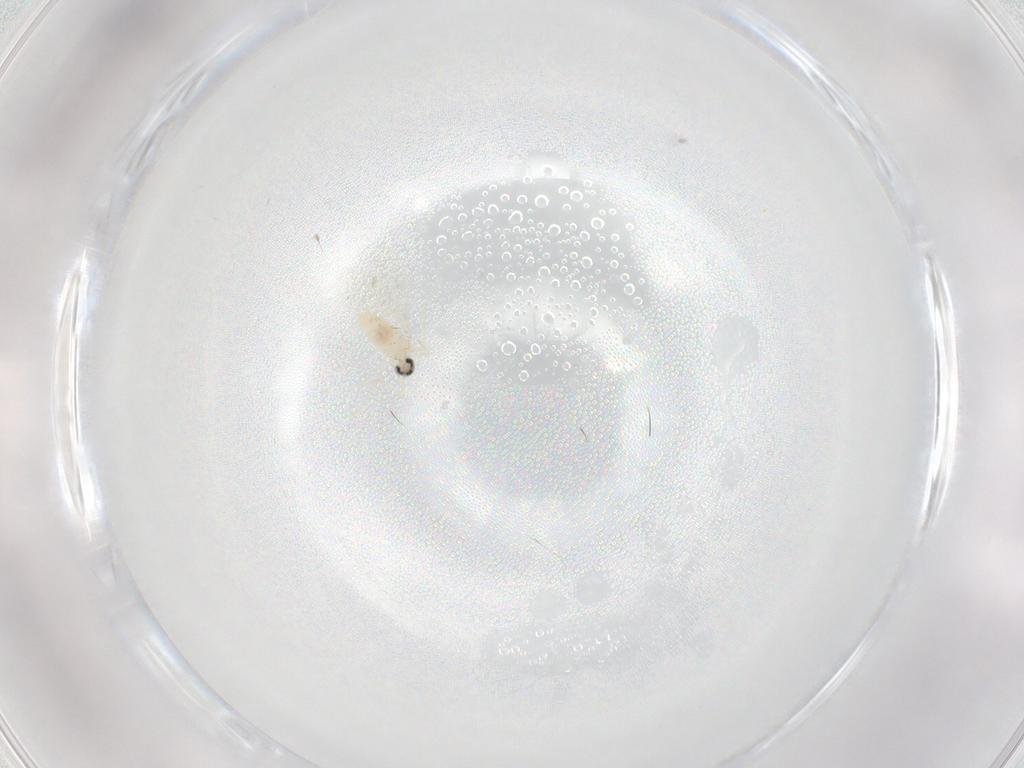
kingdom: Animalia
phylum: Arthropoda
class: Insecta
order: Diptera
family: Cecidomyiidae
